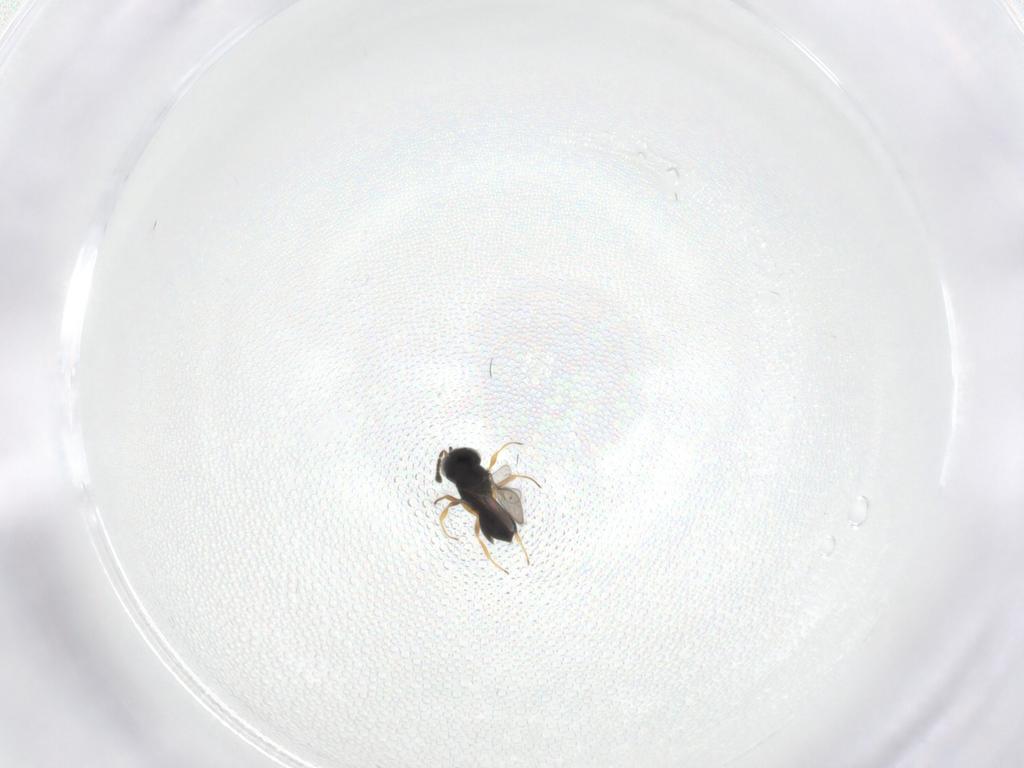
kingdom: Animalia
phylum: Arthropoda
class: Insecta
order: Hymenoptera
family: Scelionidae
